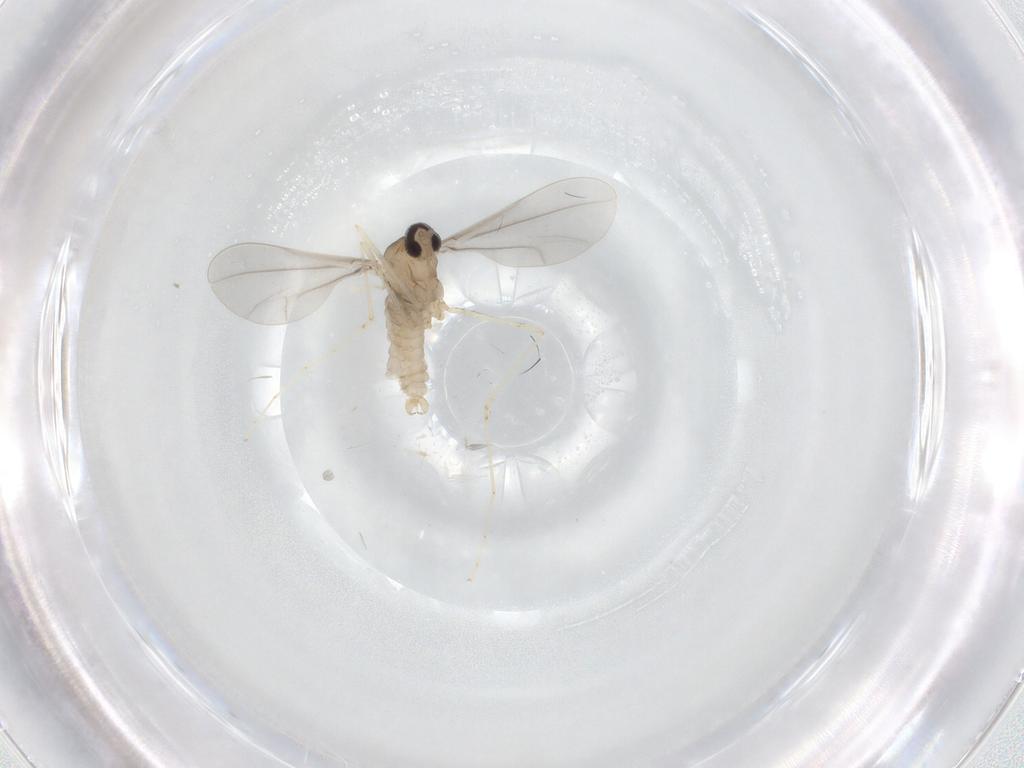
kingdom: Animalia
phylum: Arthropoda
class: Insecta
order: Diptera
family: Cecidomyiidae
